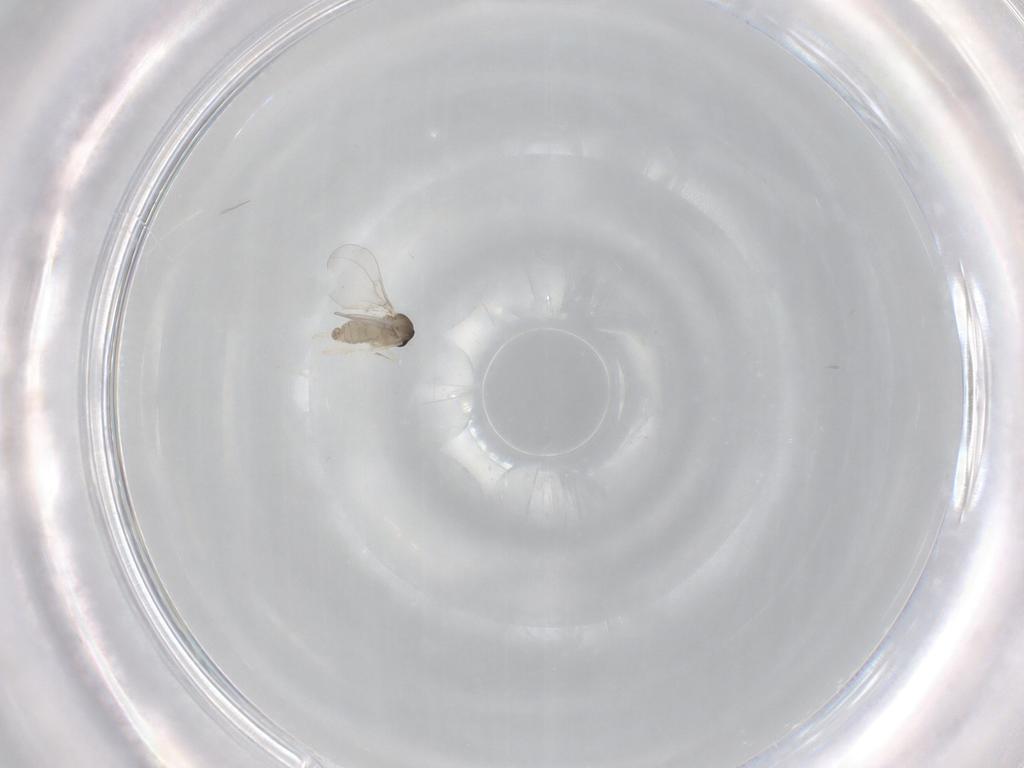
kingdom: Animalia
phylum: Arthropoda
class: Insecta
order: Diptera
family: Cecidomyiidae
